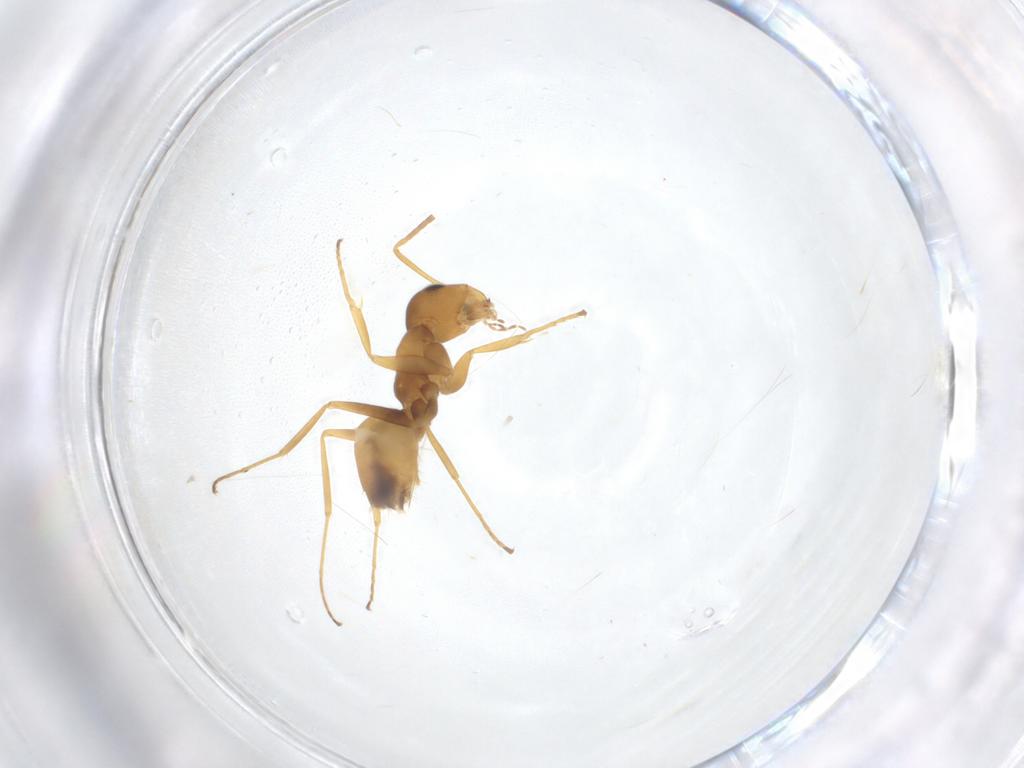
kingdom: Animalia
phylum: Arthropoda
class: Insecta
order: Hymenoptera
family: Formicidae
